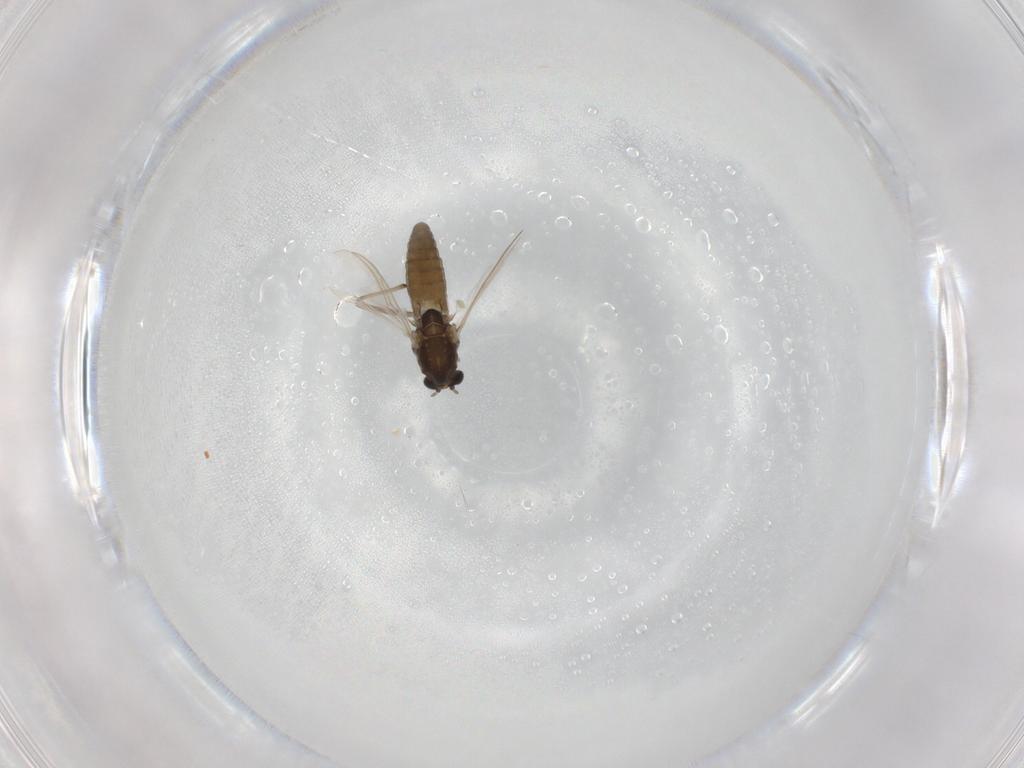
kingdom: Animalia
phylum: Arthropoda
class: Insecta
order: Diptera
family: Chironomidae
